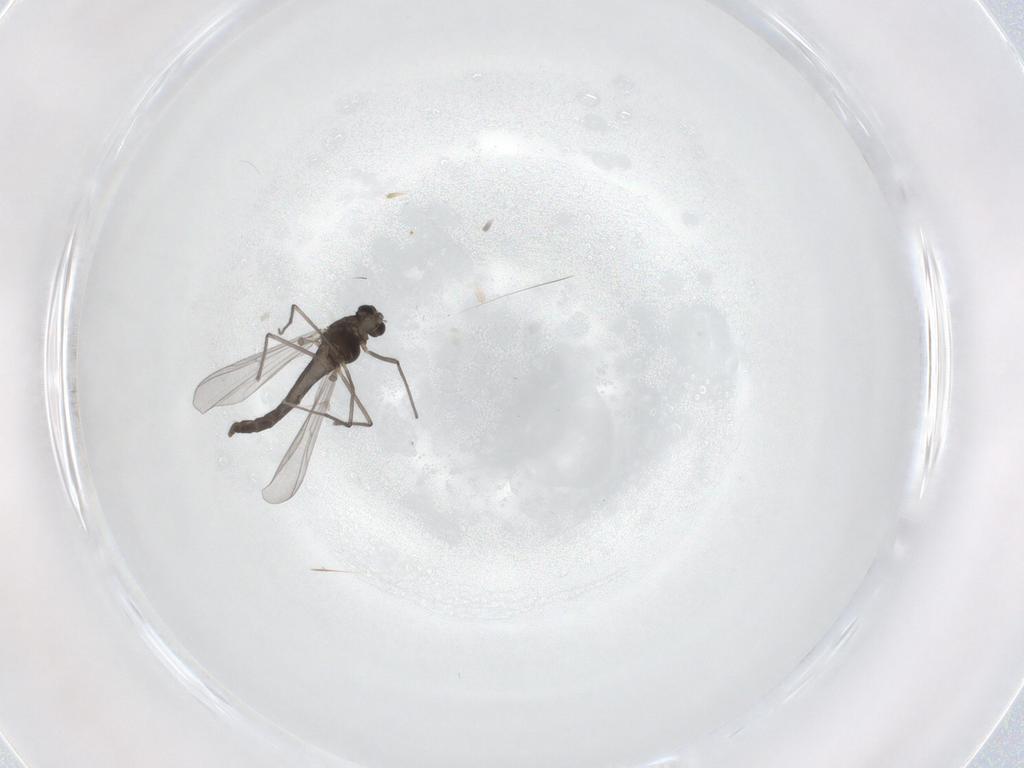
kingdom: Animalia
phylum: Arthropoda
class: Insecta
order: Diptera
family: Chironomidae
